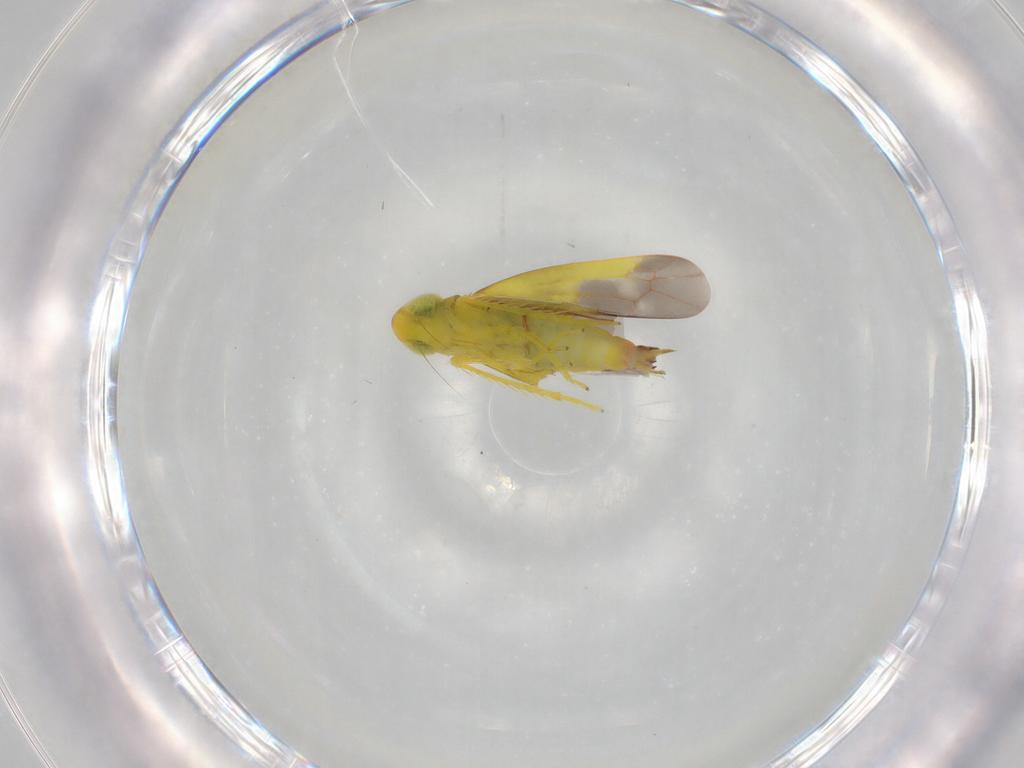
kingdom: Animalia
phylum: Arthropoda
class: Insecta
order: Hemiptera
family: Cicadellidae
